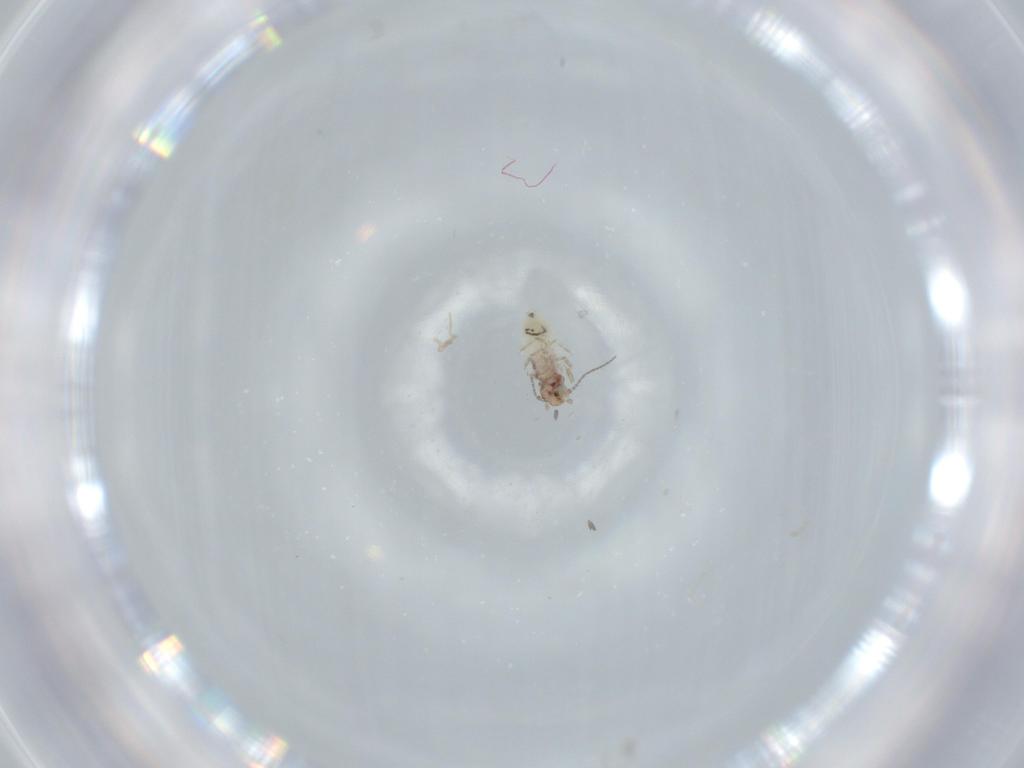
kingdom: Animalia
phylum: Arthropoda
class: Insecta
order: Psocodea
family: Lepidopsocidae
